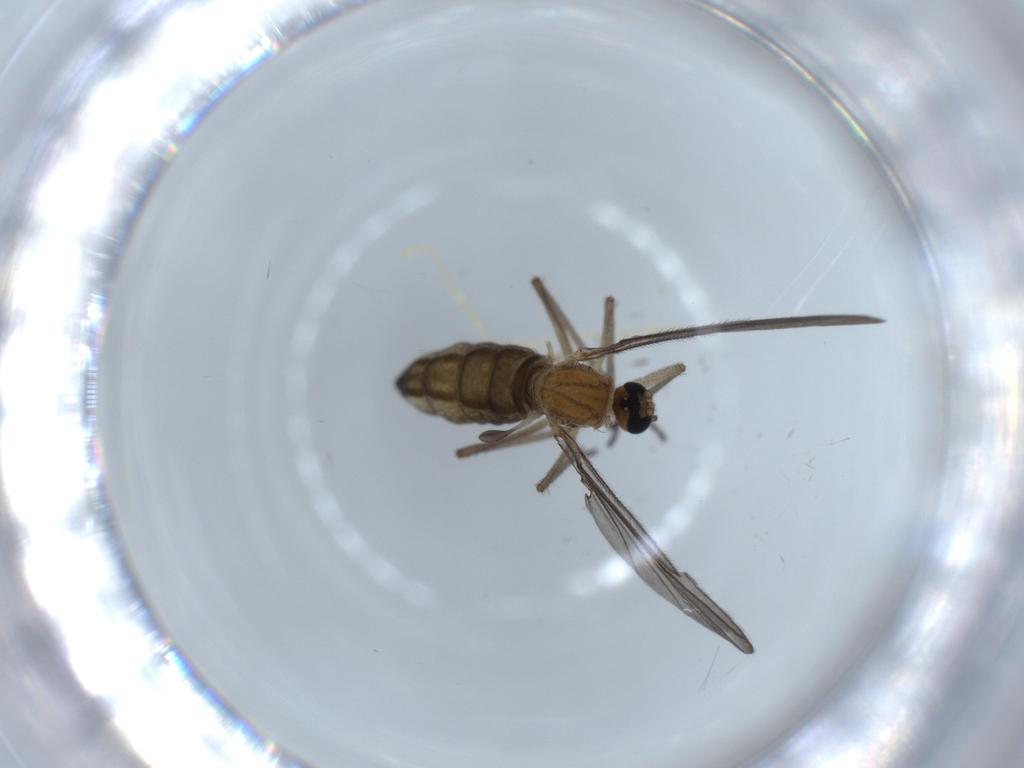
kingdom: Animalia
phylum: Arthropoda
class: Insecta
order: Diptera
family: Sciaridae
